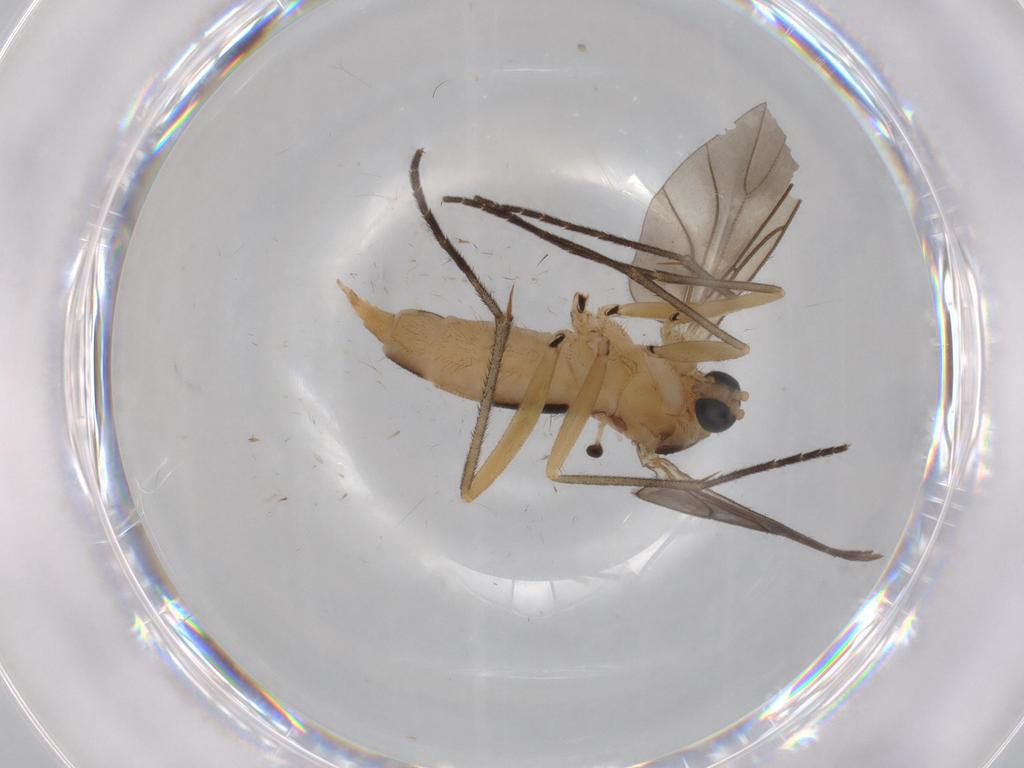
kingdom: Animalia
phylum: Arthropoda
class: Insecta
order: Diptera
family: Sciaridae
